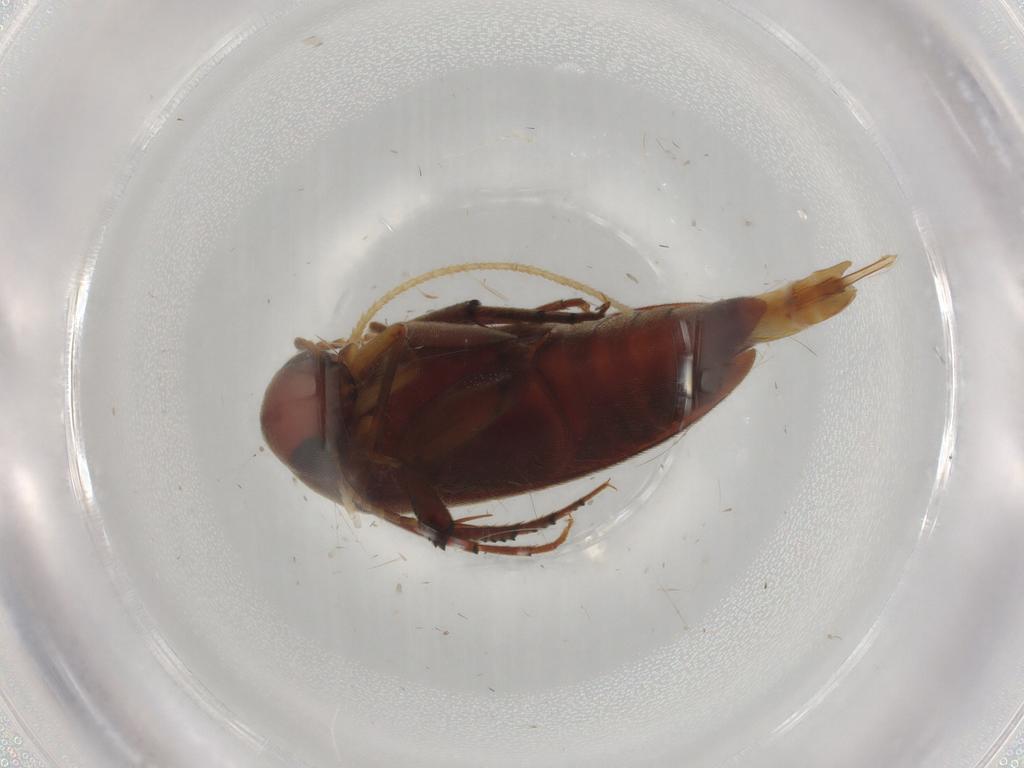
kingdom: Animalia
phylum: Arthropoda
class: Insecta
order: Coleoptera
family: Mordellidae
